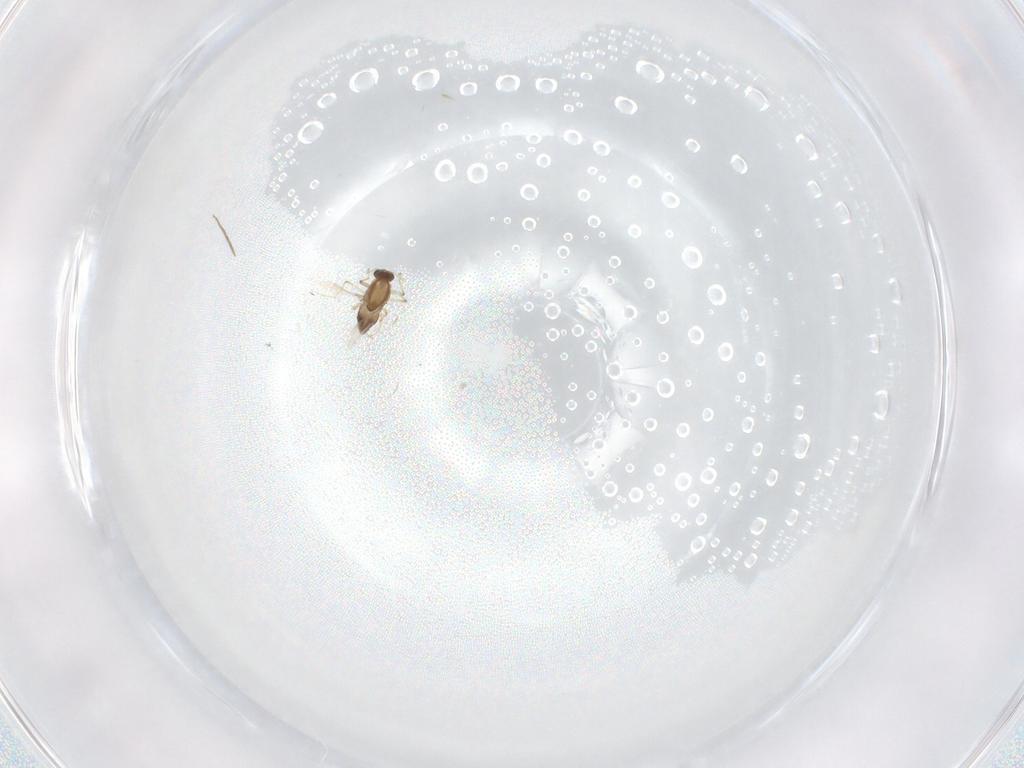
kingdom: Animalia
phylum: Arthropoda
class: Insecta
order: Diptera
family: Chironomidae
